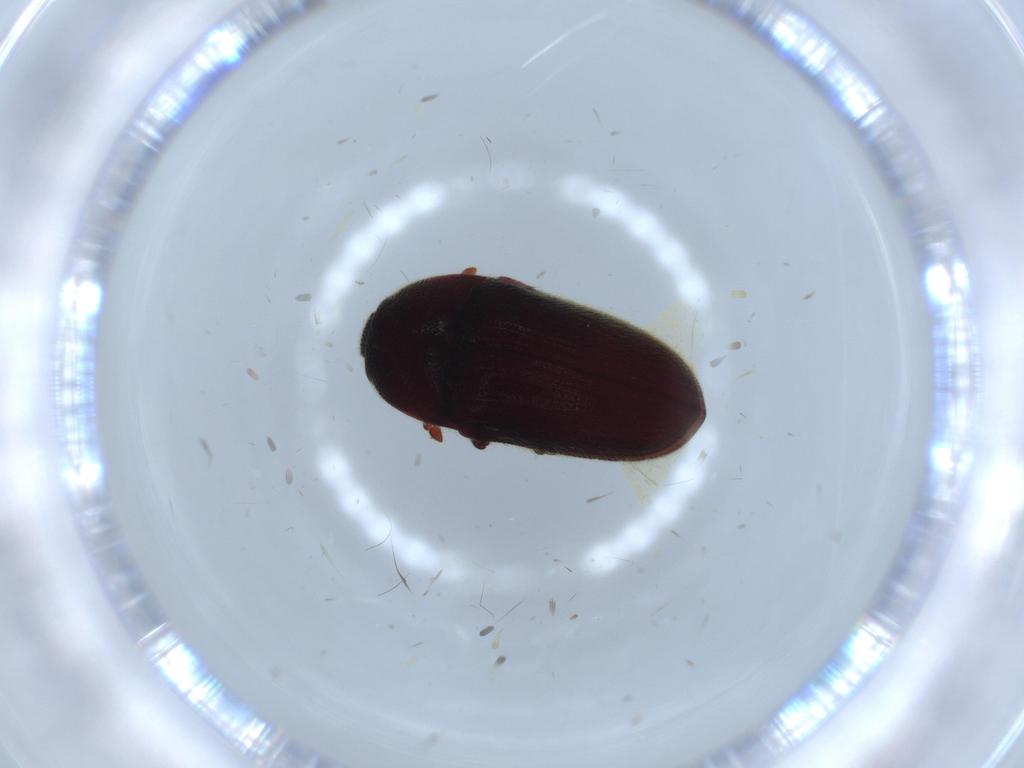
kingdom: Animalia
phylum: Arthropoda
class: Insecta
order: Coleoptera
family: Throscidae
